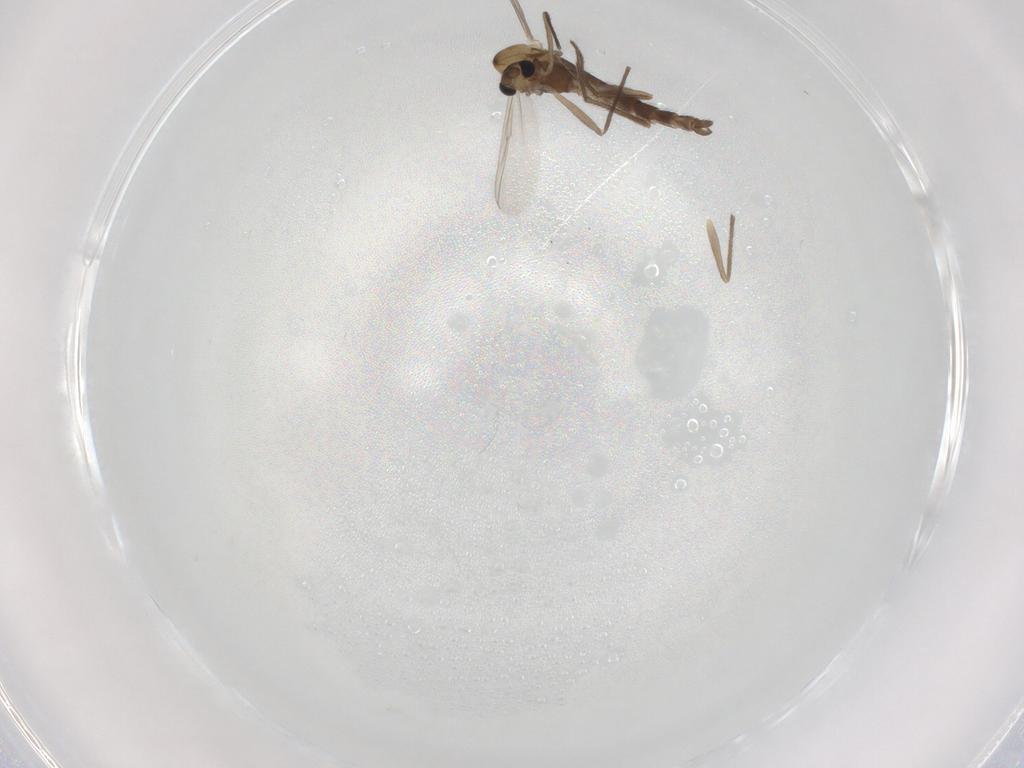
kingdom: Animalia
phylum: Arthropoda
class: Insecta
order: Diptera
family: Chironomidae
